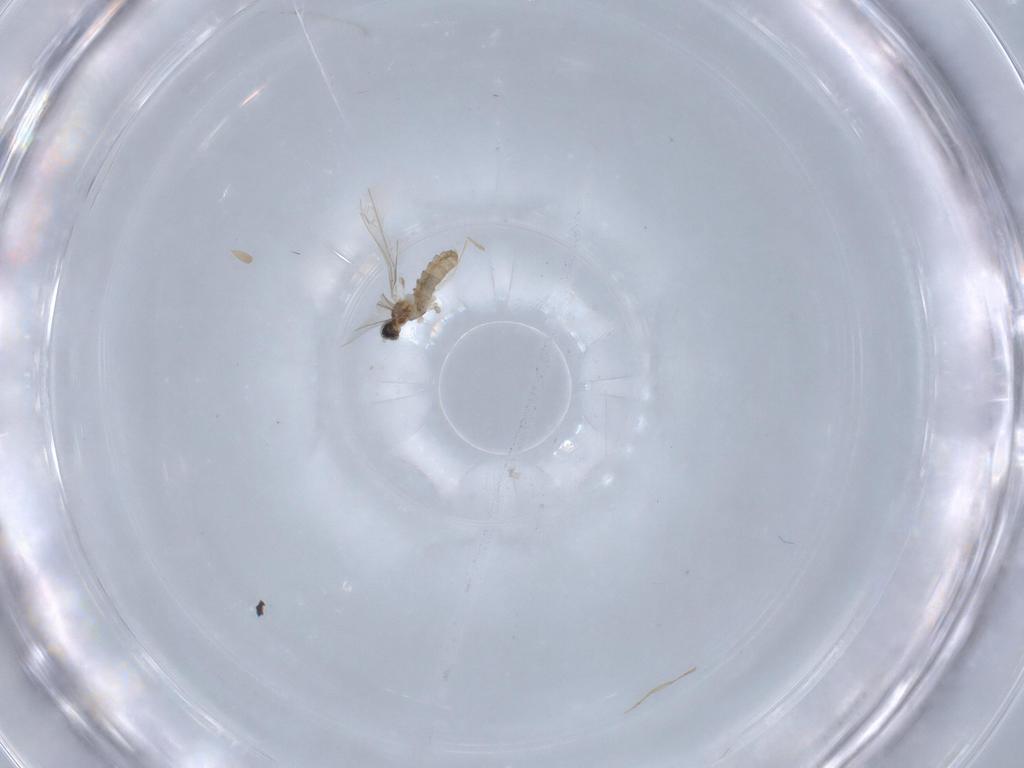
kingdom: Animalia
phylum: Arthropoda
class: Insecta
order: Diptera
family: Cecidomyiidae
